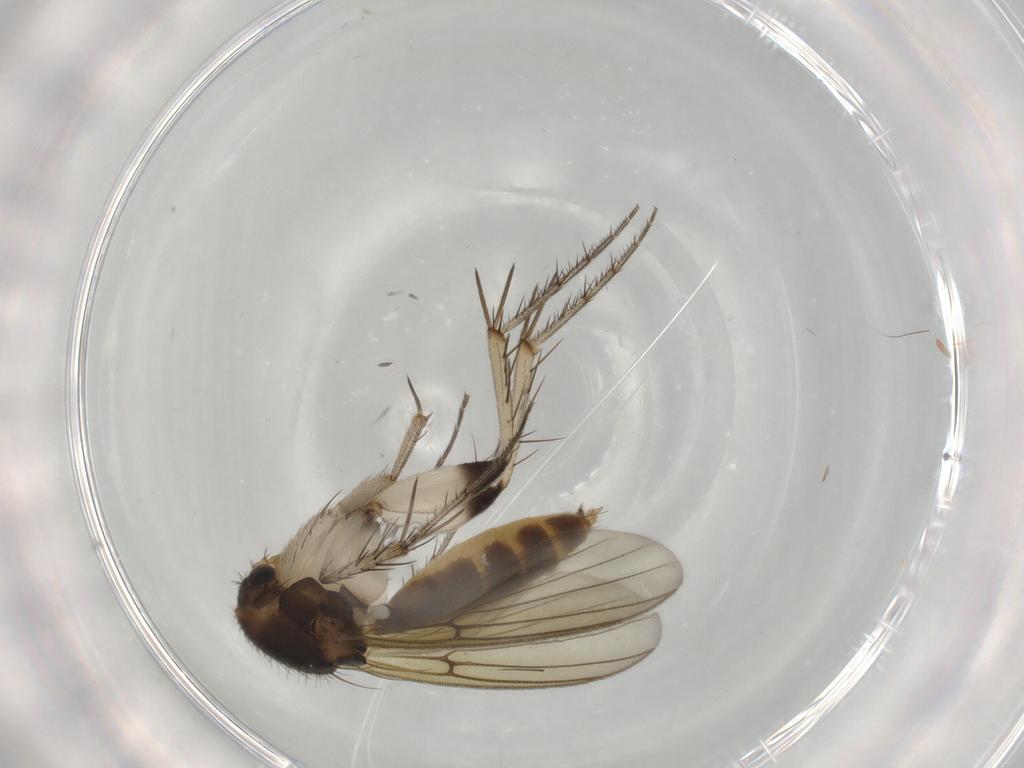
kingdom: Animalia
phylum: Arthropoda
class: Insecta
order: Diptera
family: Mycetophilidae
